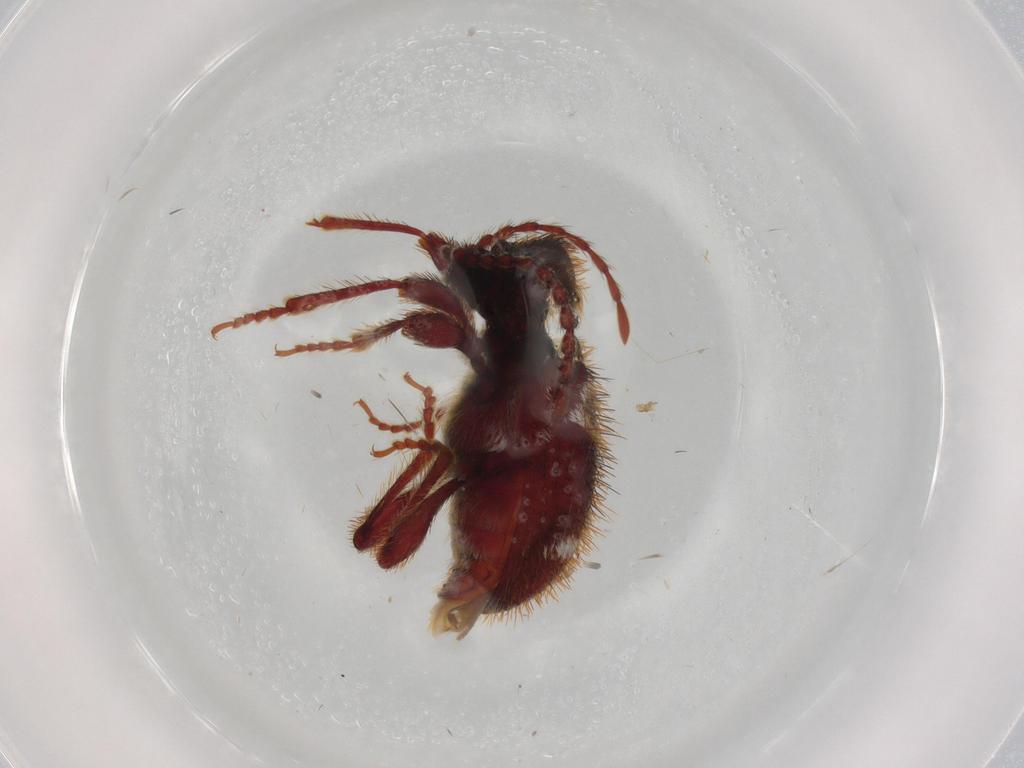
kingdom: Animalia
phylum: Arthropoda
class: Insecta
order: Coleoptera
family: Ptinidae
